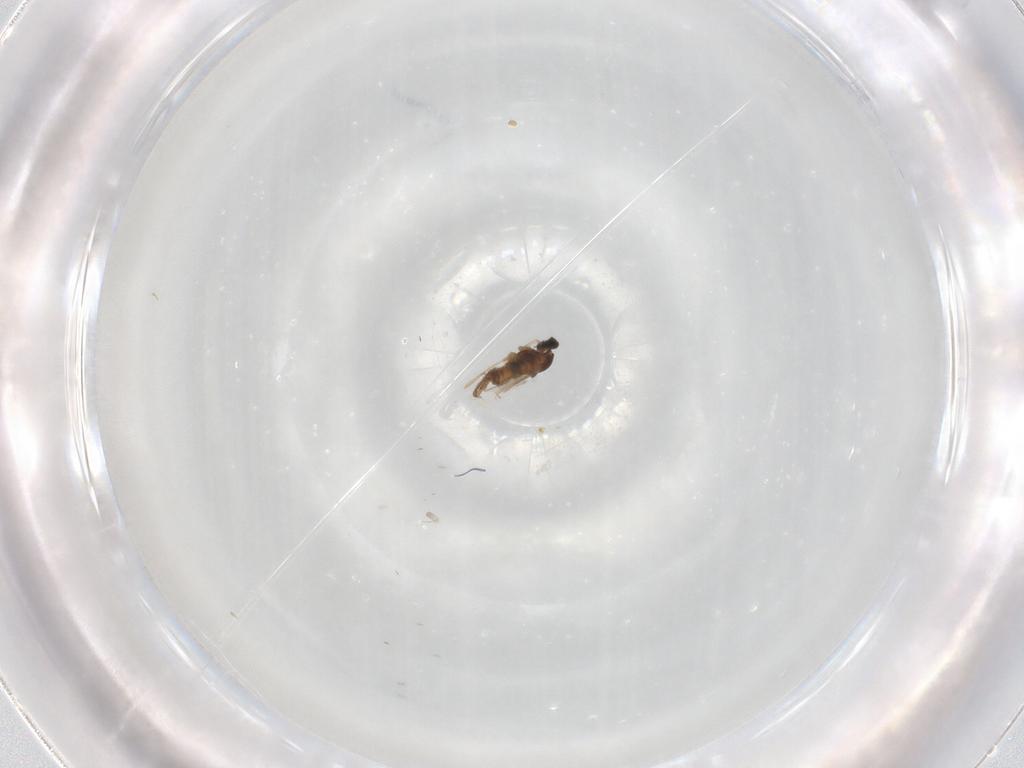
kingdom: Animalia
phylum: Arthropoda
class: Insecta
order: Diptera
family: Cecidomyiidae
